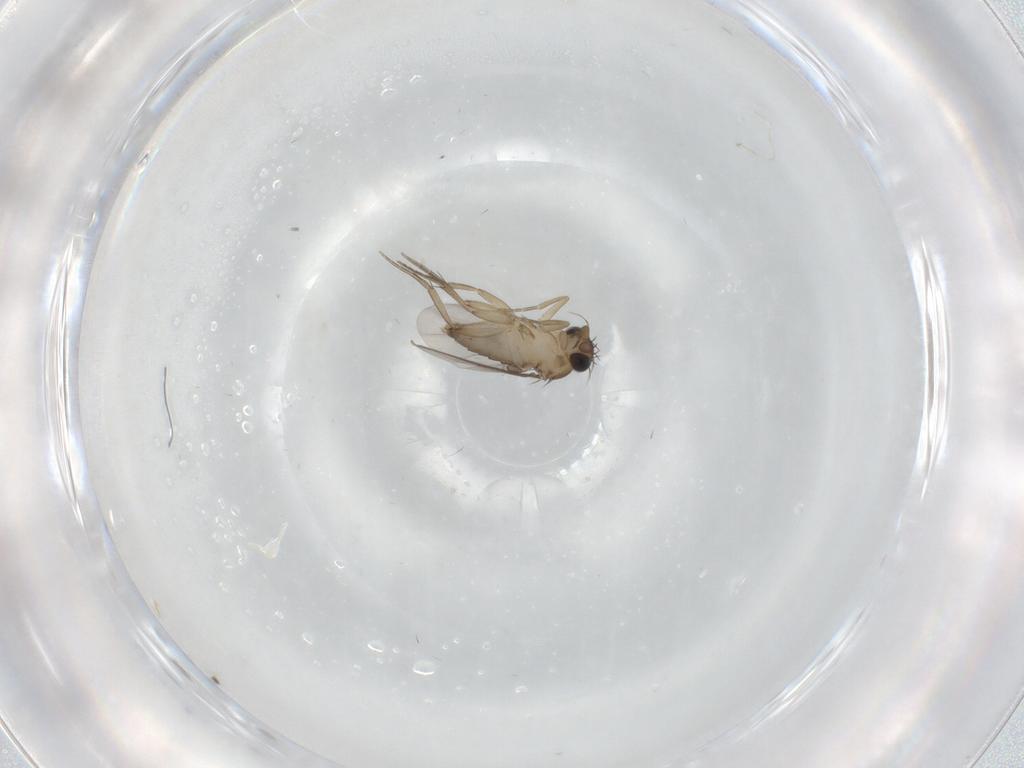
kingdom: Animalia
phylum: Arthropoda
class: Insecta
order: Diptera
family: Phoridae
